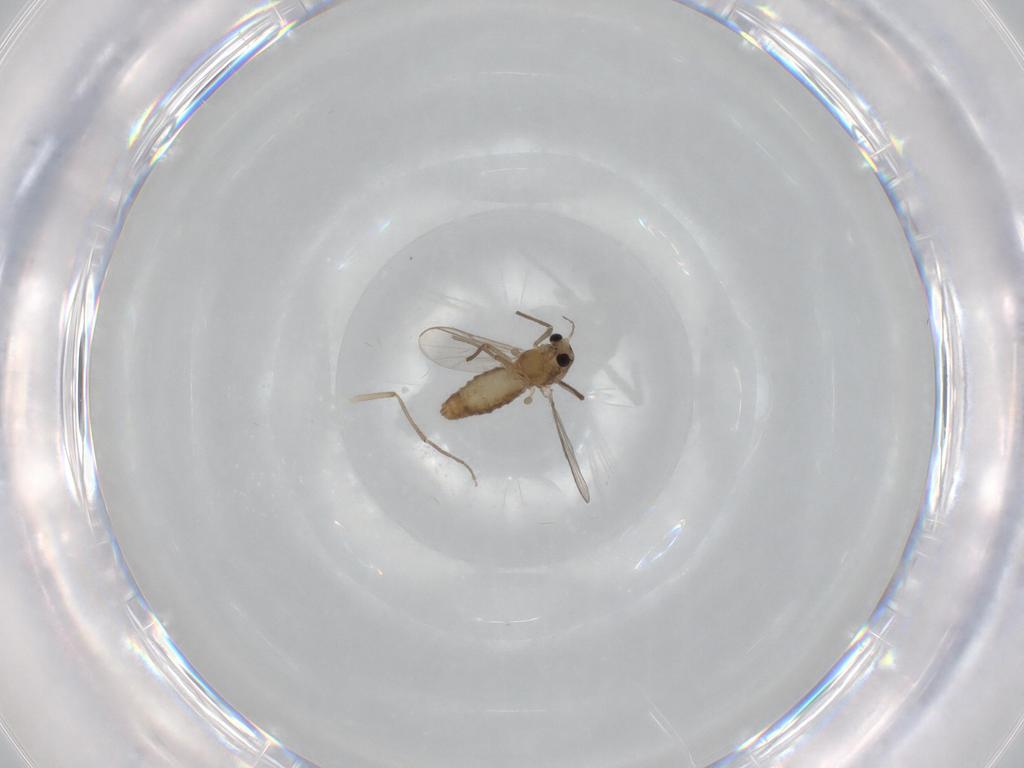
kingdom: Animalia
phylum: Arthropoda
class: Insecta
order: Diptera
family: Chironomidae
